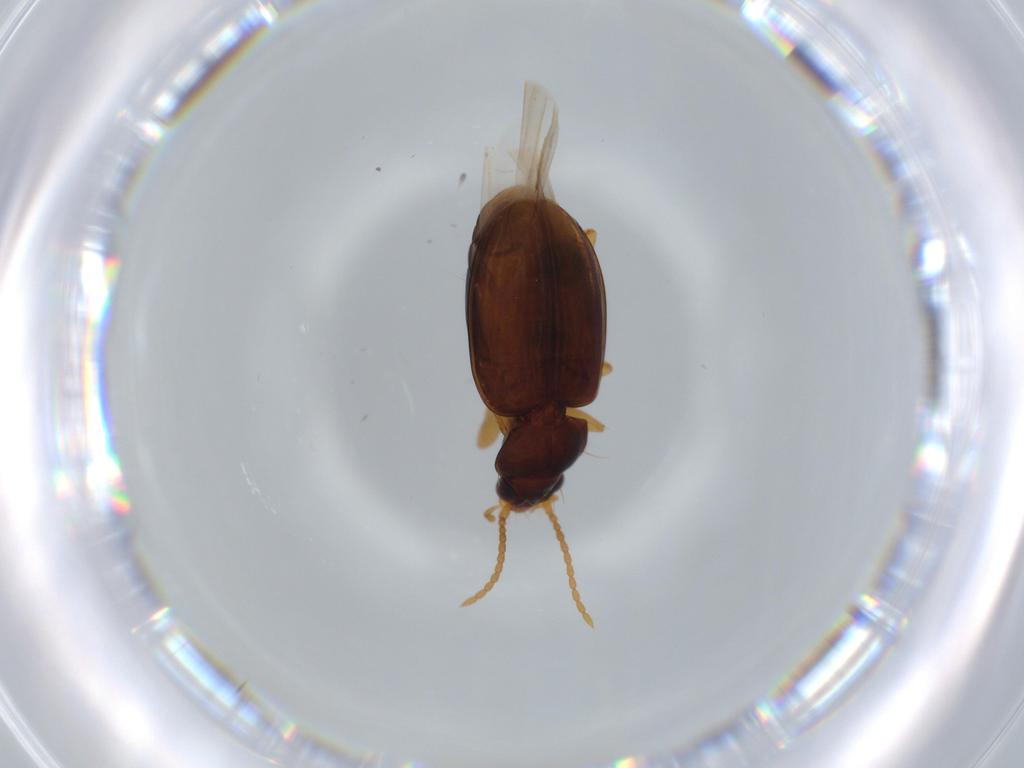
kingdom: Animalia
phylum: Arthropoda
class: Insecta
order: Coleoptera
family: Carabidae
